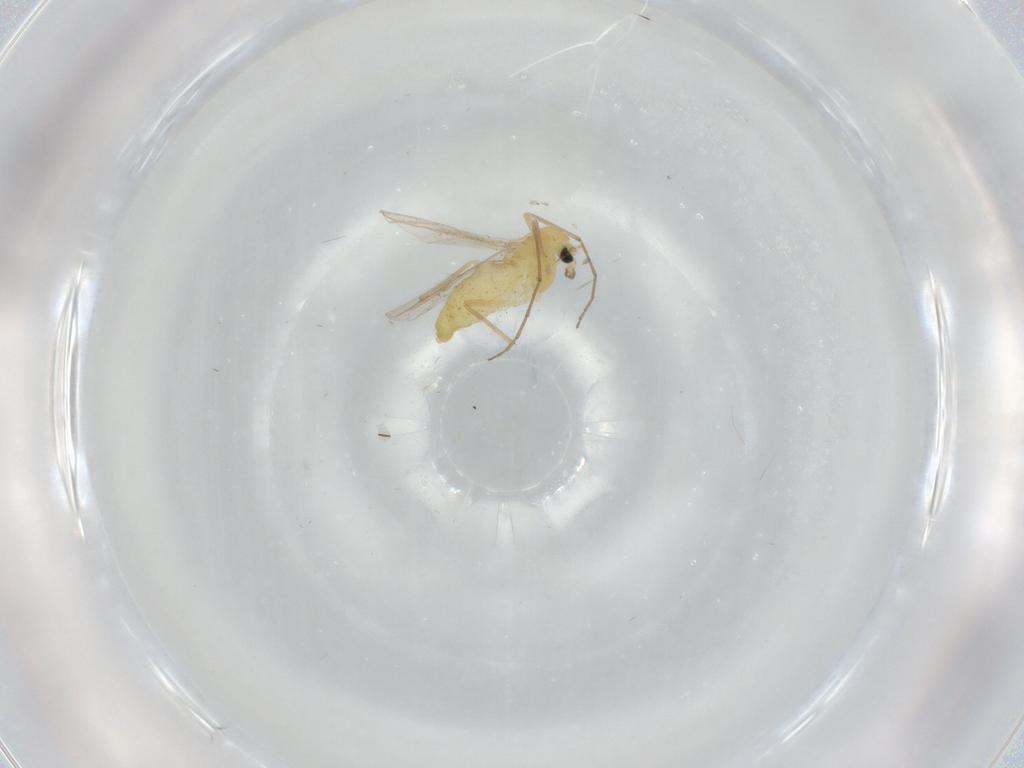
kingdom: Animalia
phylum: Arthropoda
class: Insecta
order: Diptera
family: Chironomidae
